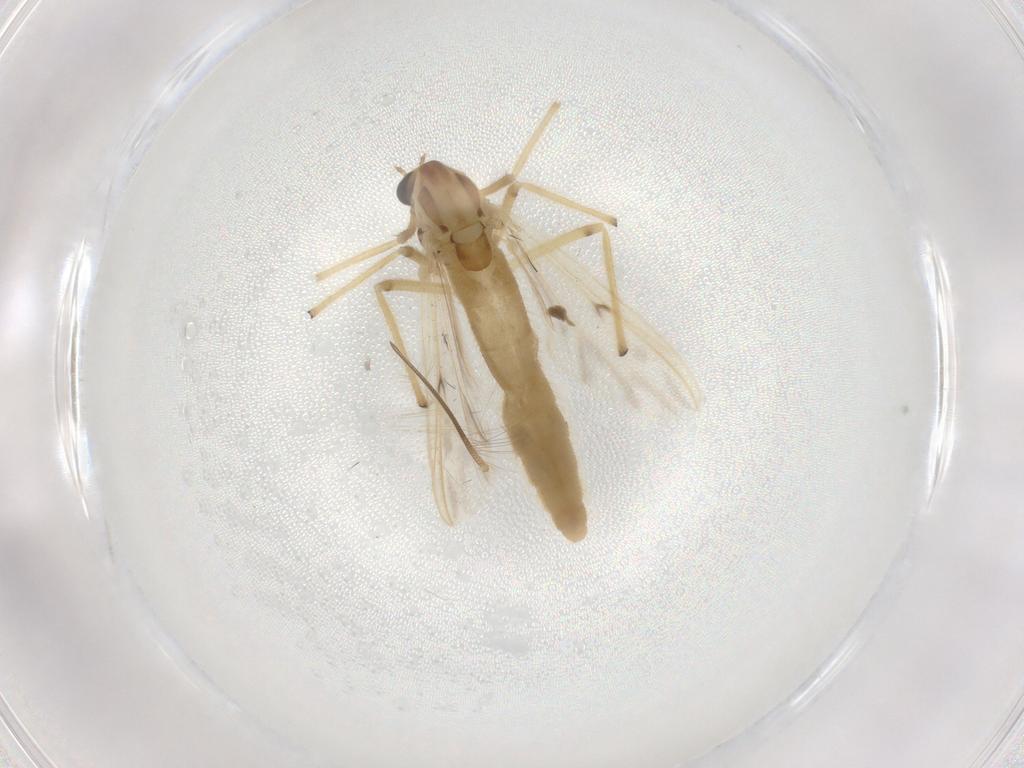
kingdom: Animalia
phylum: Arthropoda
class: Insecta
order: Diptera
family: Chironomidae
